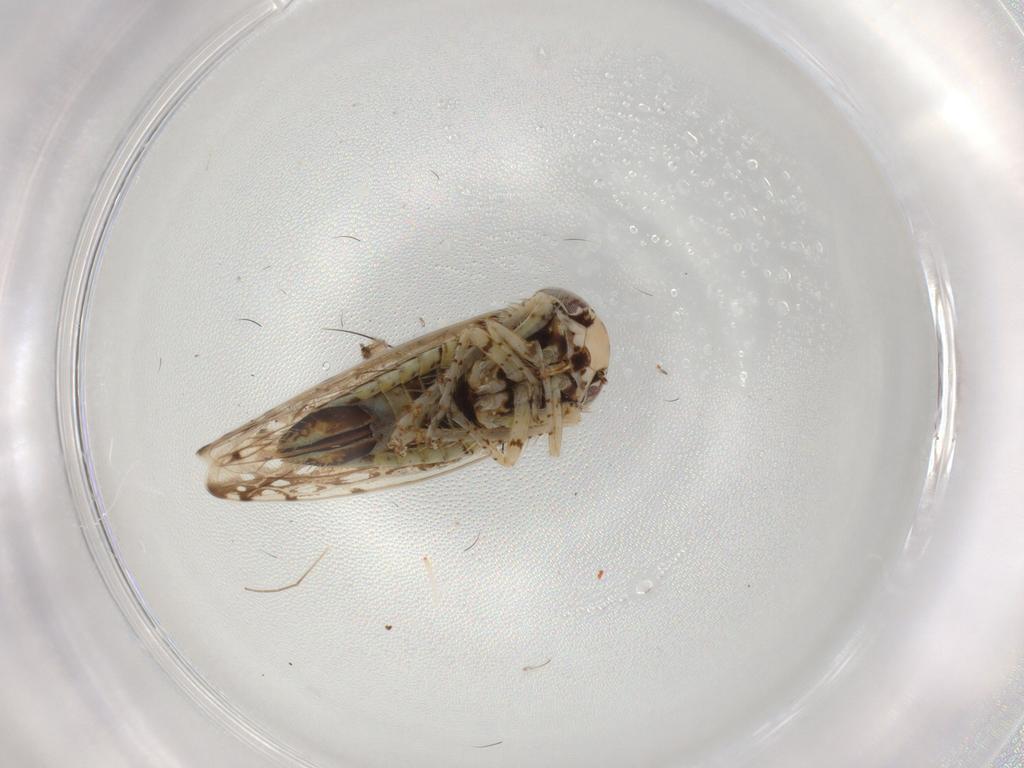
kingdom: Animalia
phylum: Arthropoda
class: Insecta
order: Hemiptera
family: Cicadellidae
